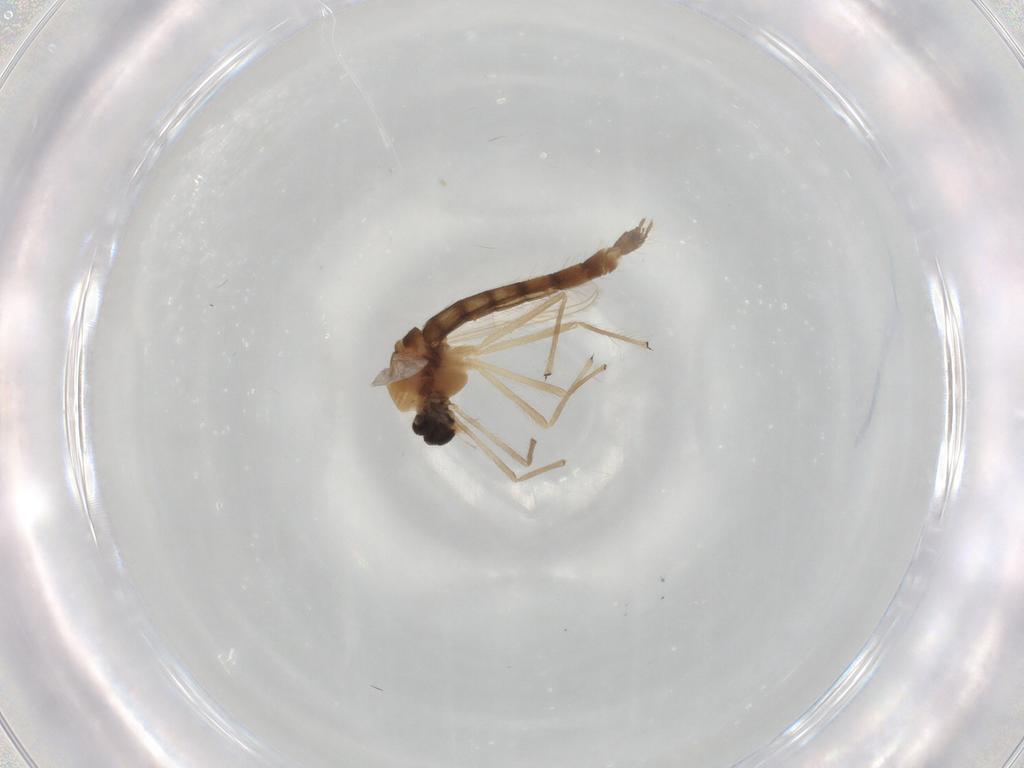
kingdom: Animalia
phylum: Arthropoda
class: Insecta
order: Diptera
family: Chironomidae
